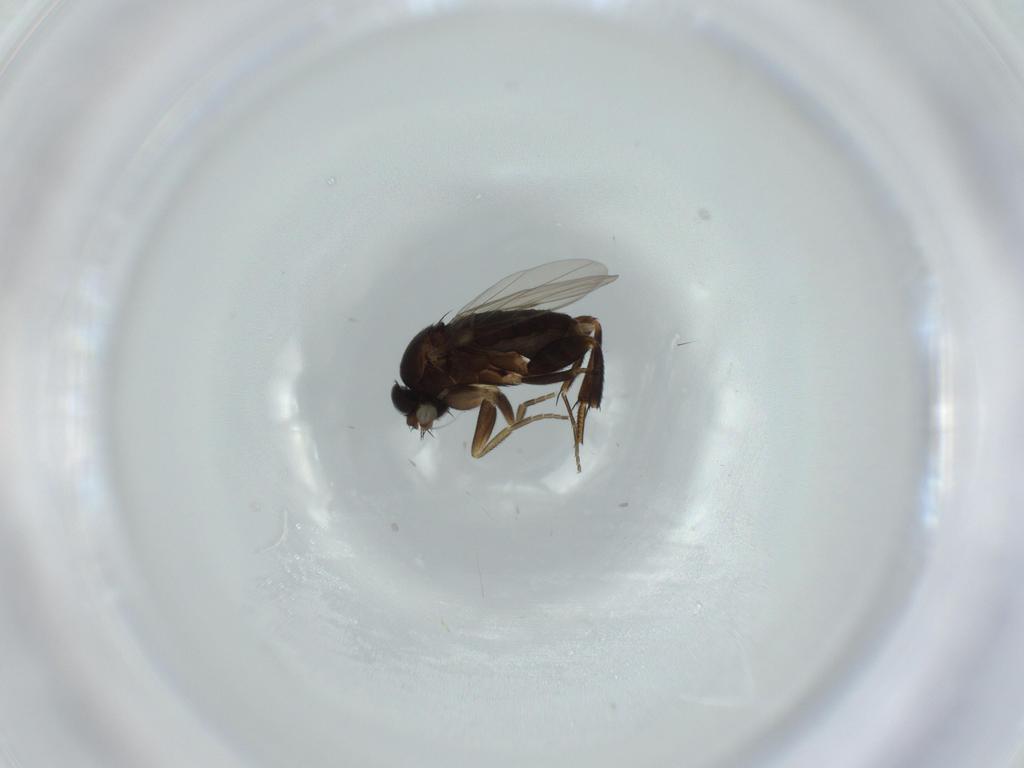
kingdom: Animalia
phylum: Arthropoda
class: Insecta
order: Diptera
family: Phoridae
